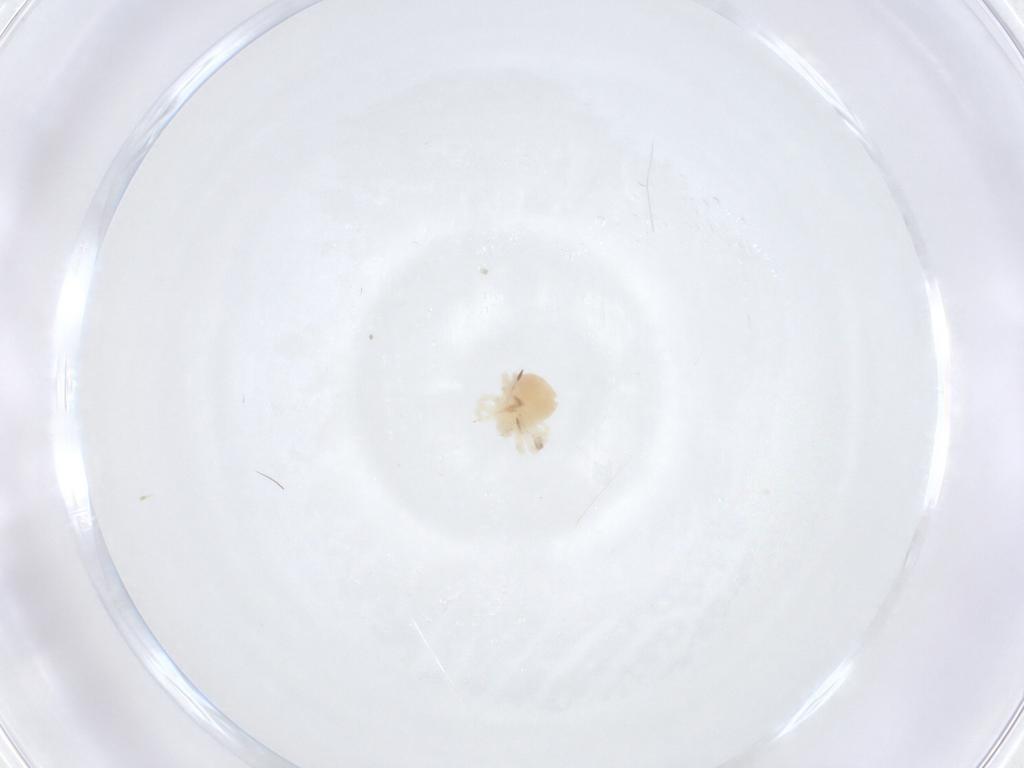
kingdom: Animalia
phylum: Arthropoda
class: Arachnida
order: Trombidiformes
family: Anystidae
